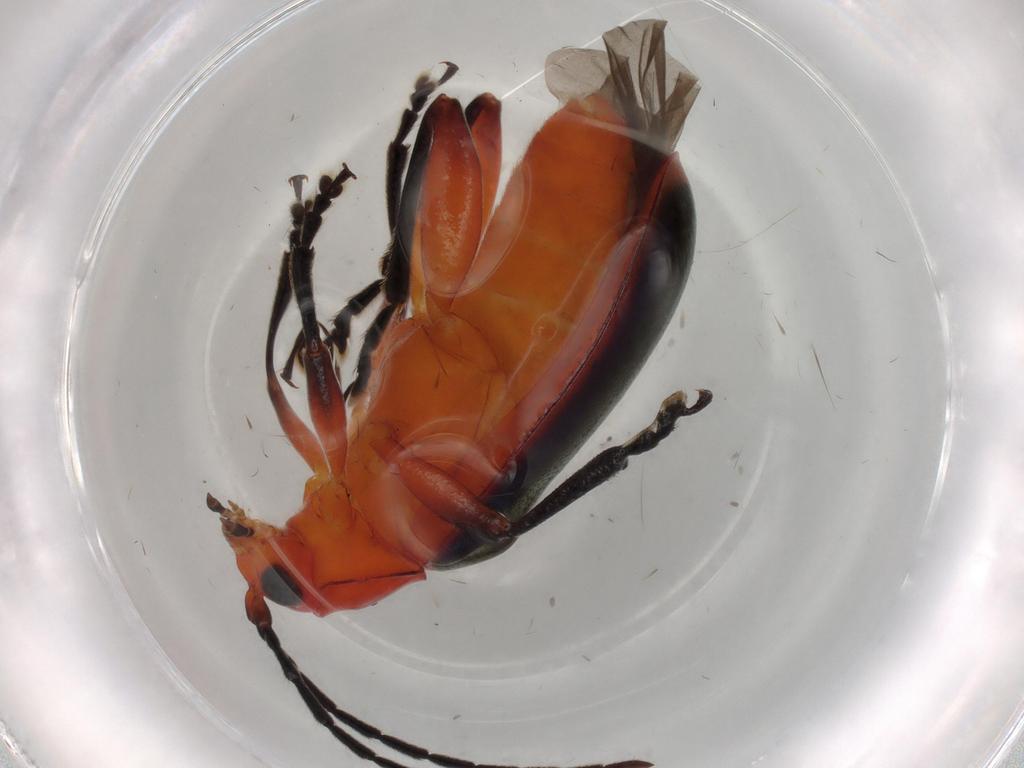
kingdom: Animalia
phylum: Arthropoda
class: Insecta
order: Coleoptera
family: Chrysomelidae
